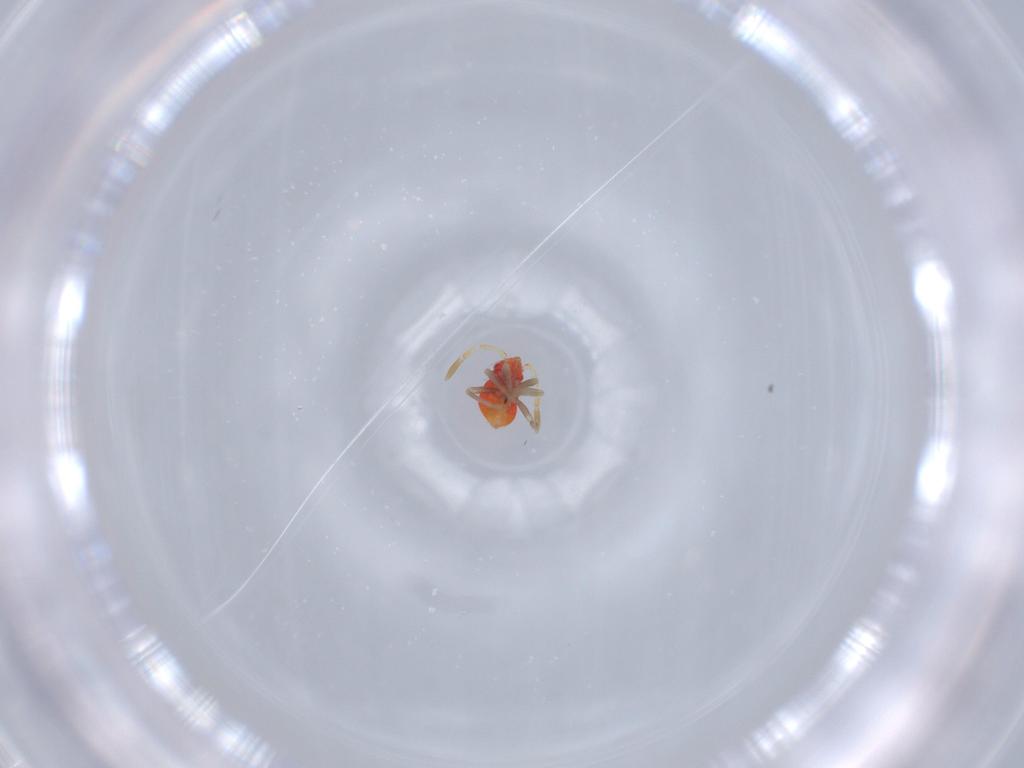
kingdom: Animalia
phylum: Arthropoda
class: Insecta
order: Hemiptera
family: Miridae
